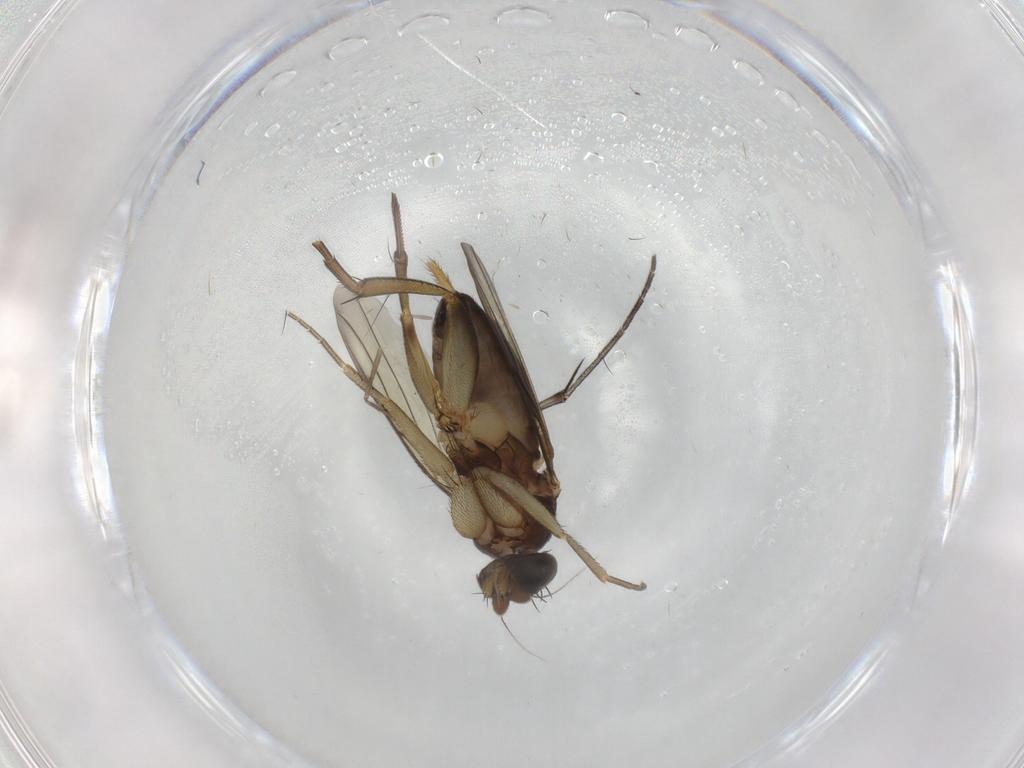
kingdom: Animalia
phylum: Arthropoda
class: Insecta
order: Diptera
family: Phoridae
